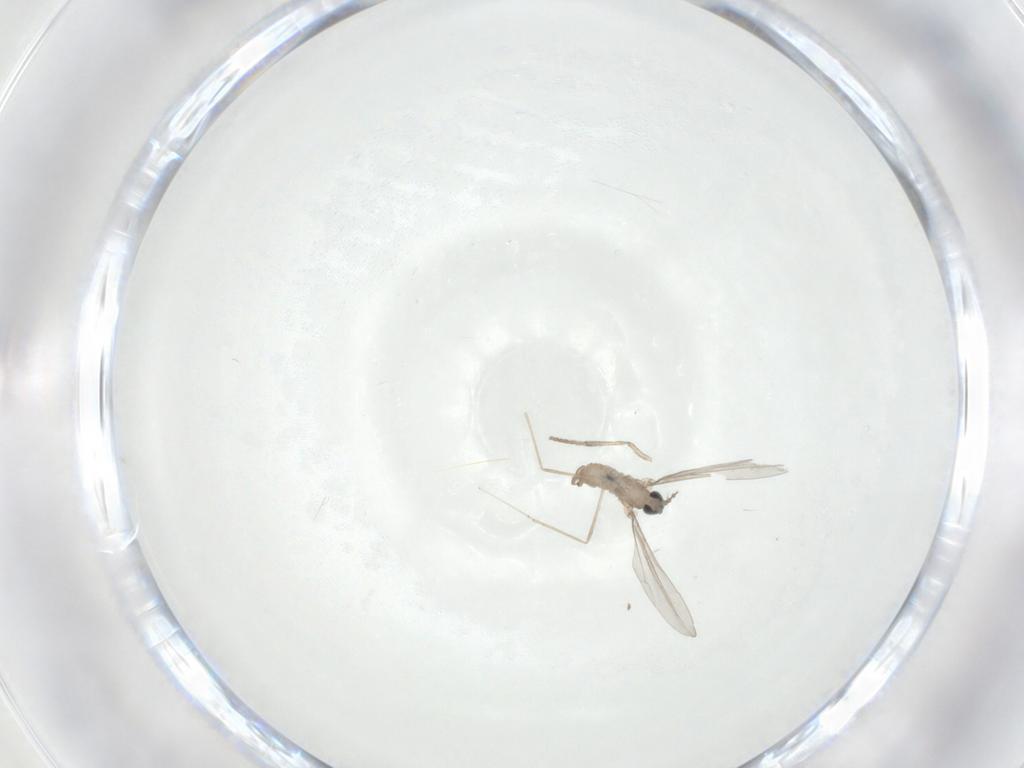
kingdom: Animalia
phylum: Arthropoda
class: Insecta
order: Diptera
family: Cecidomyiidae
